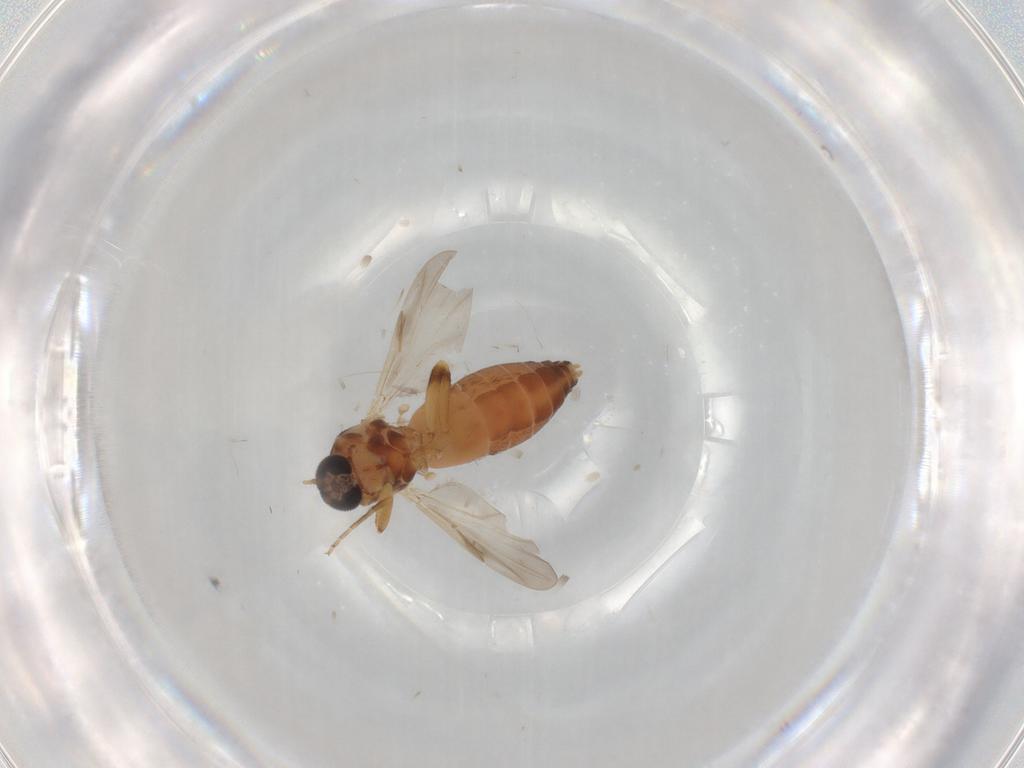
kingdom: Animalia
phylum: Arthropoda
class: Insecta
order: Diptera
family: Ceratopogonidae
